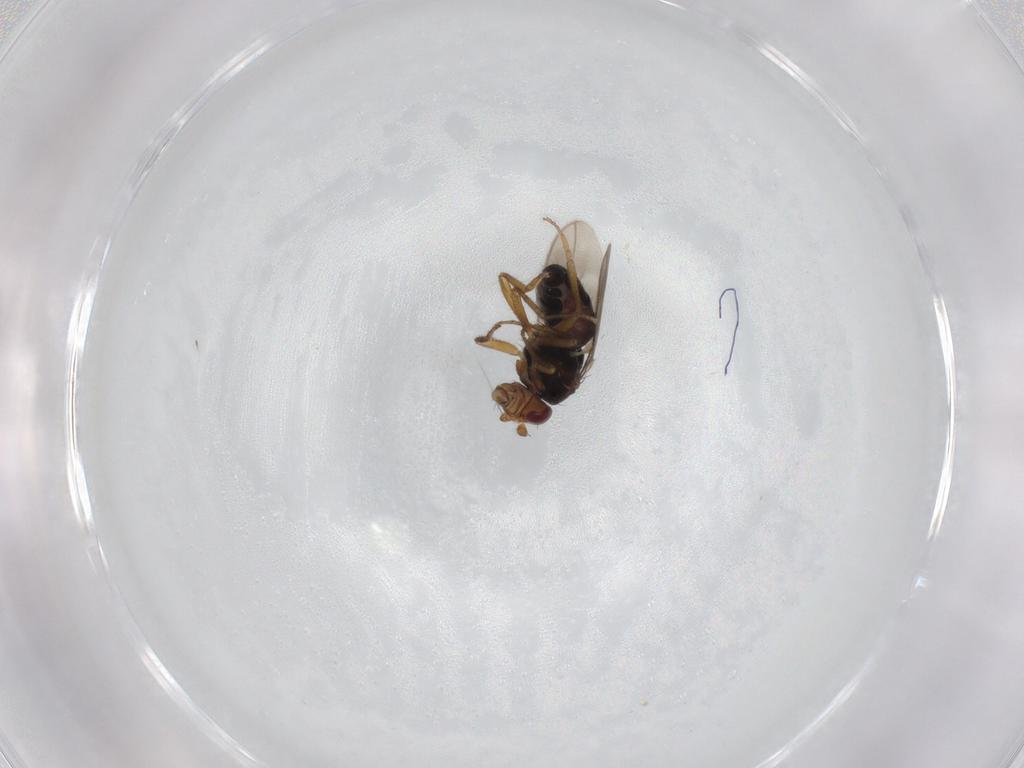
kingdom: Animalia
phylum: Arthropoda
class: Insecta
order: Diptera
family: Sphaeroceridae
